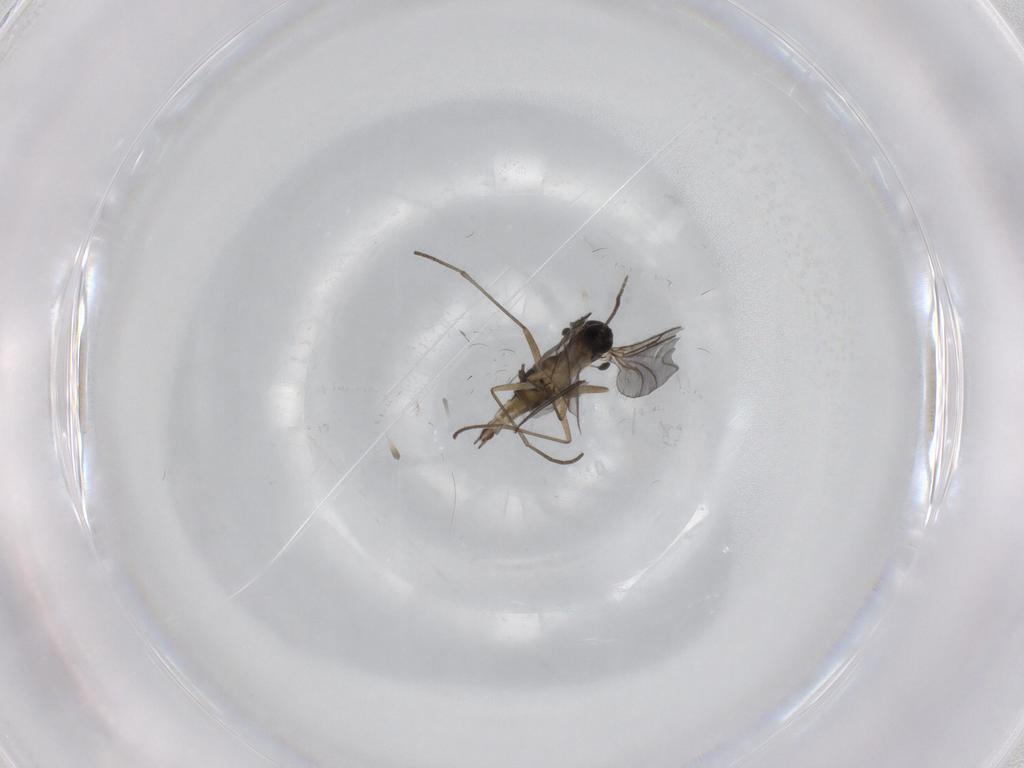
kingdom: Animalia
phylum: Arthropoda
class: Insecta
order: Diptera
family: Sciaridae
